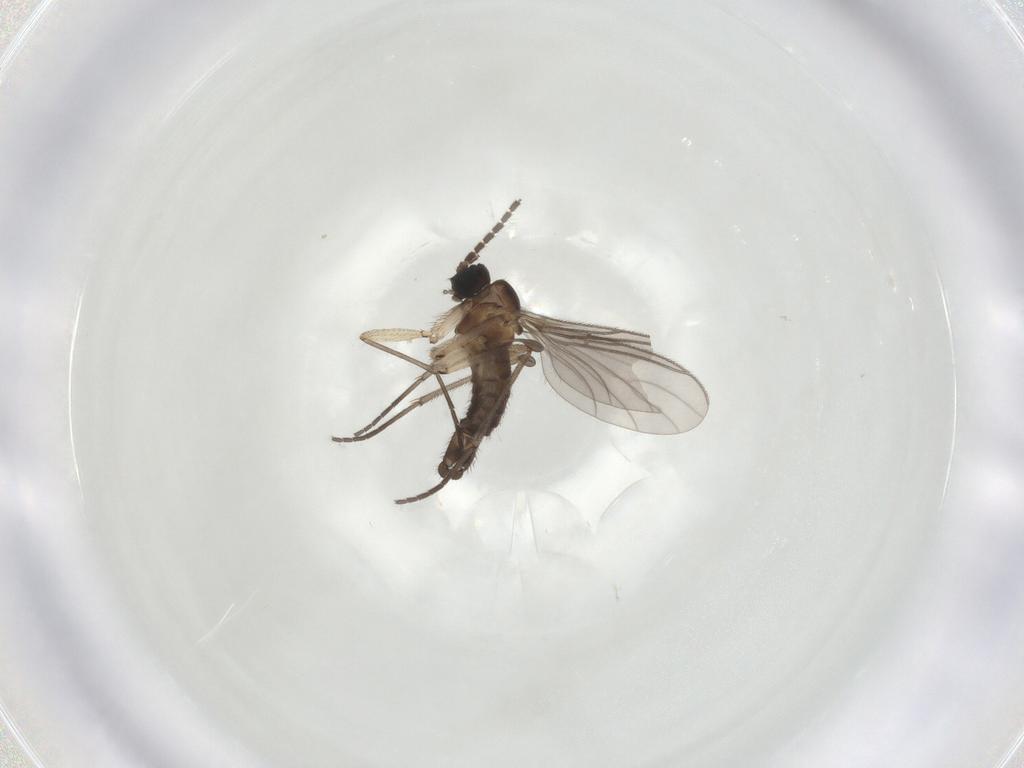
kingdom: Animalia
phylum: Arthropoda
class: Insecta
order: Diptera
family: Sciaridae
